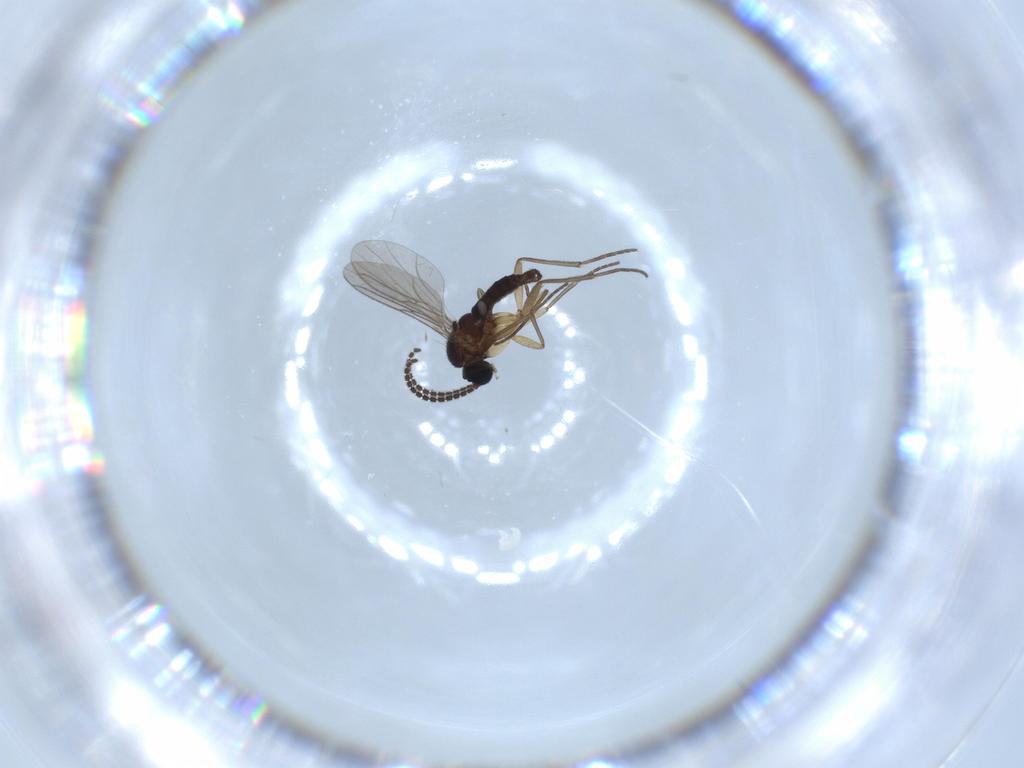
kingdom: Animalia
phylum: Arthropoda
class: Insecta
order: Diptera
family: Sciaridae
